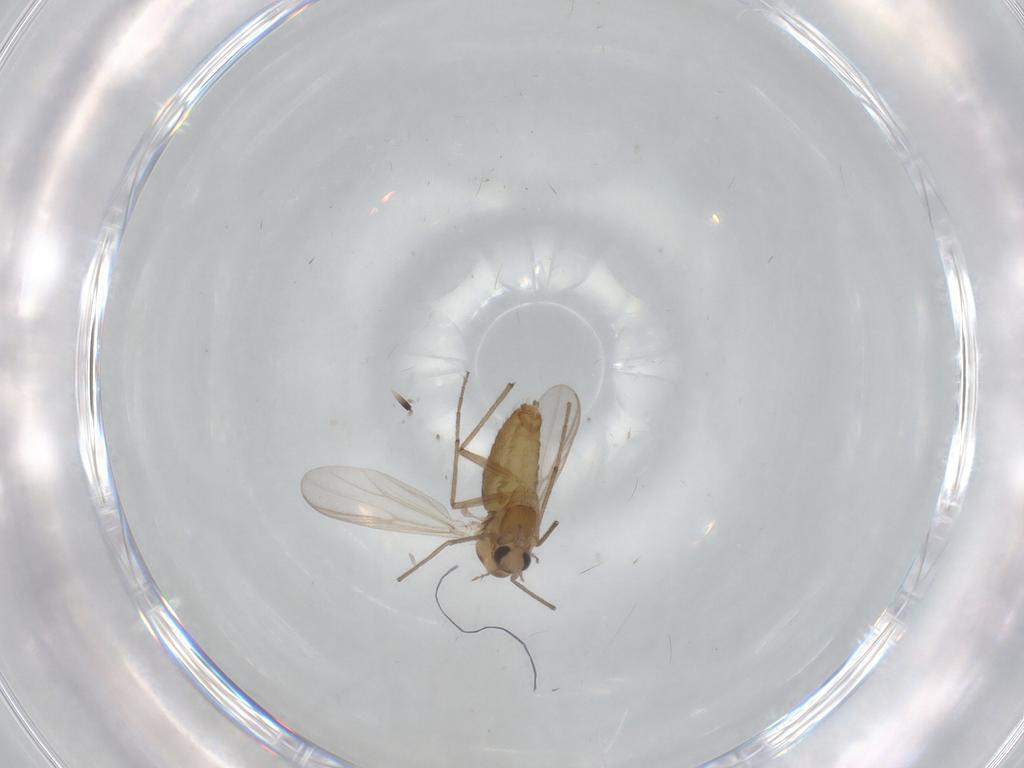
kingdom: Animalia
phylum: Arthropoda
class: Insecta
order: Diptera
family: Chironomidae
